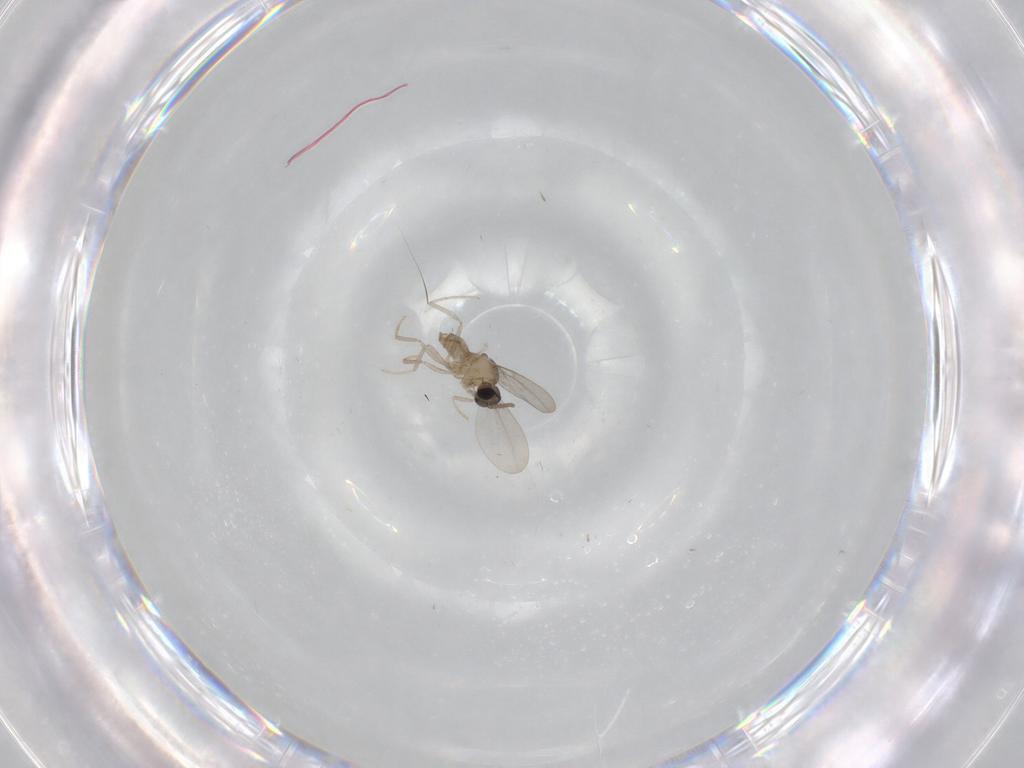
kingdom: Animalia
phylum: Arthropoda
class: Insecta
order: Diptera
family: Cecidomyiidae
